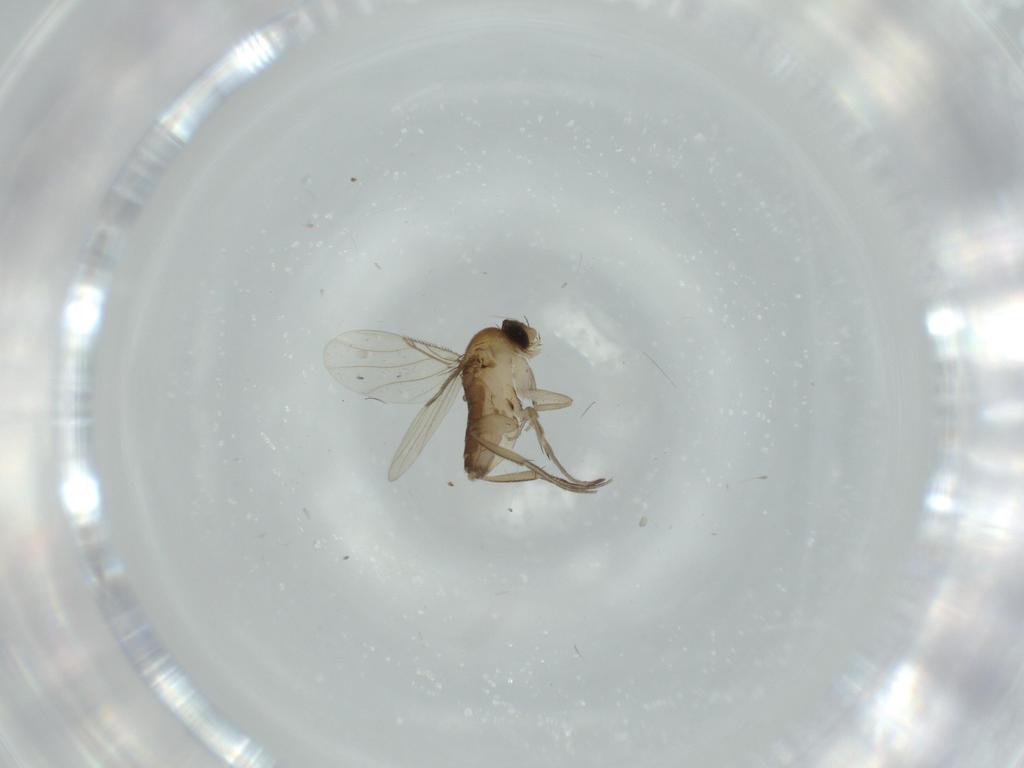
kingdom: Animalia
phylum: Arthropoda
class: Insecta
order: Diptera
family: Phoridae
